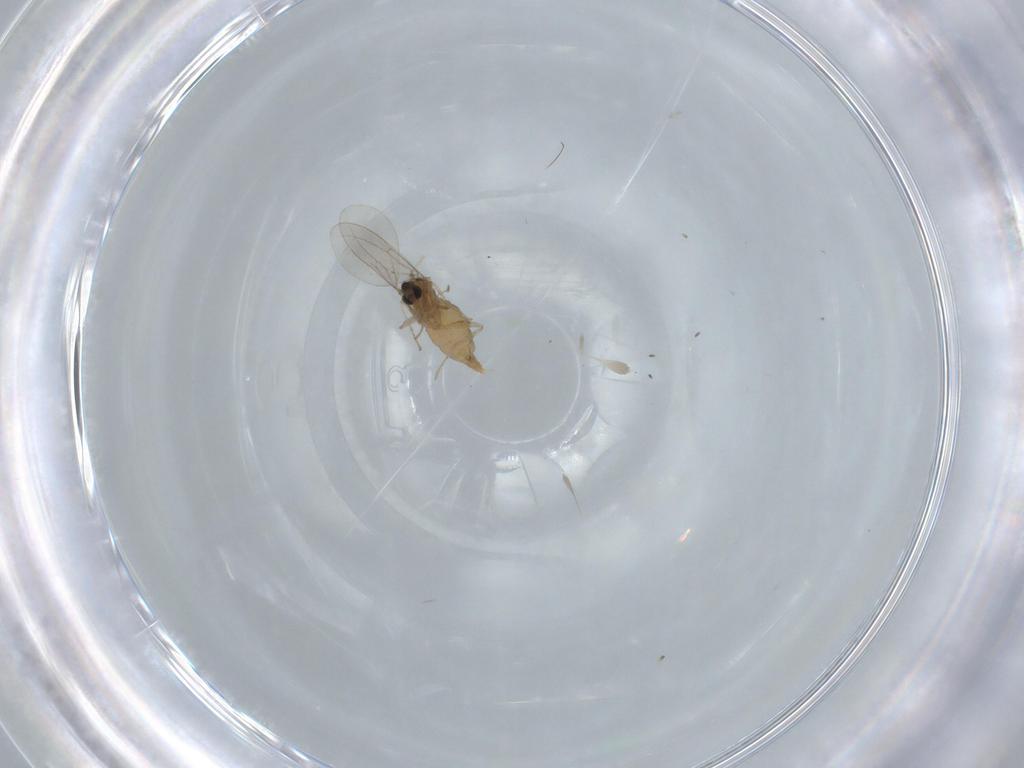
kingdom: Animalia
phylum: Arthropoda
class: Insecta
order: Diptera
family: Cecidomyiidae
